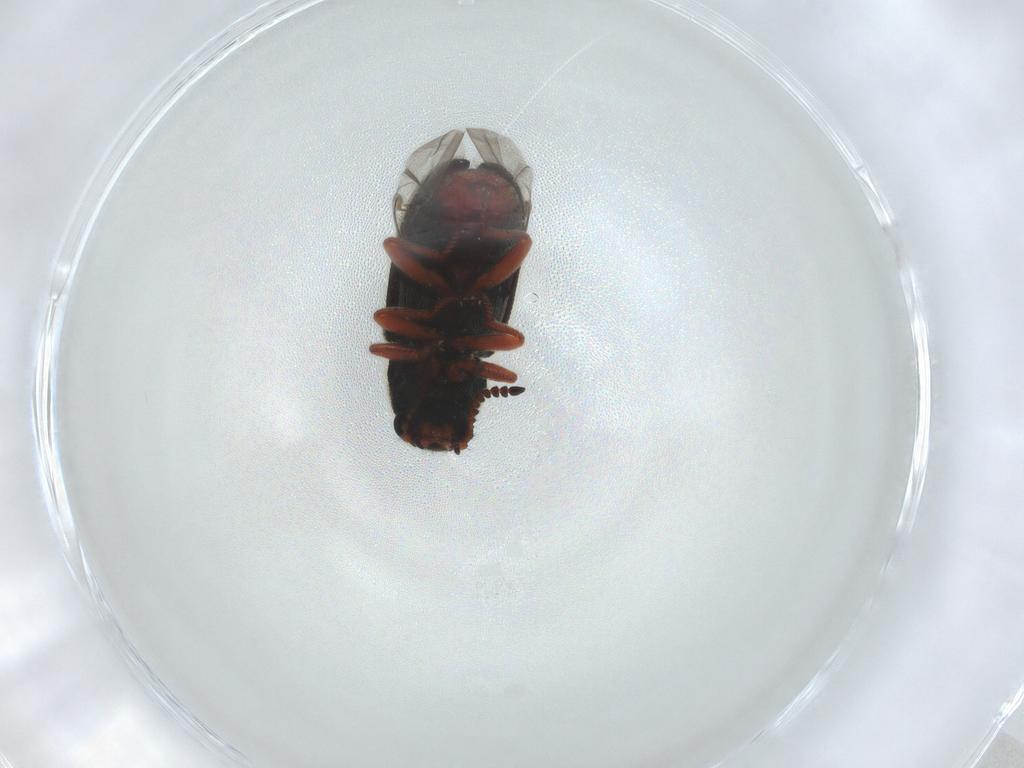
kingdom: Animalia
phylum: Arthropoda
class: Insecta
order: Coleoptera
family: Melyridae
